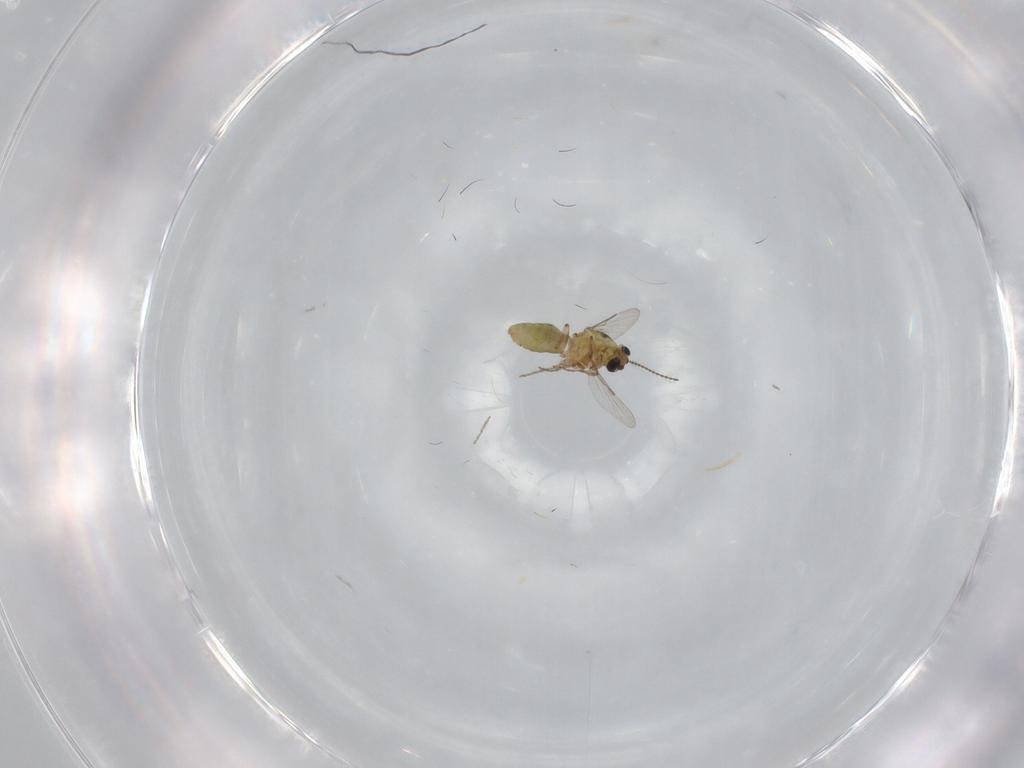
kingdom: Animalia
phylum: Arthropoda
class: Insecta
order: Diptera
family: Ceratopogonidae
